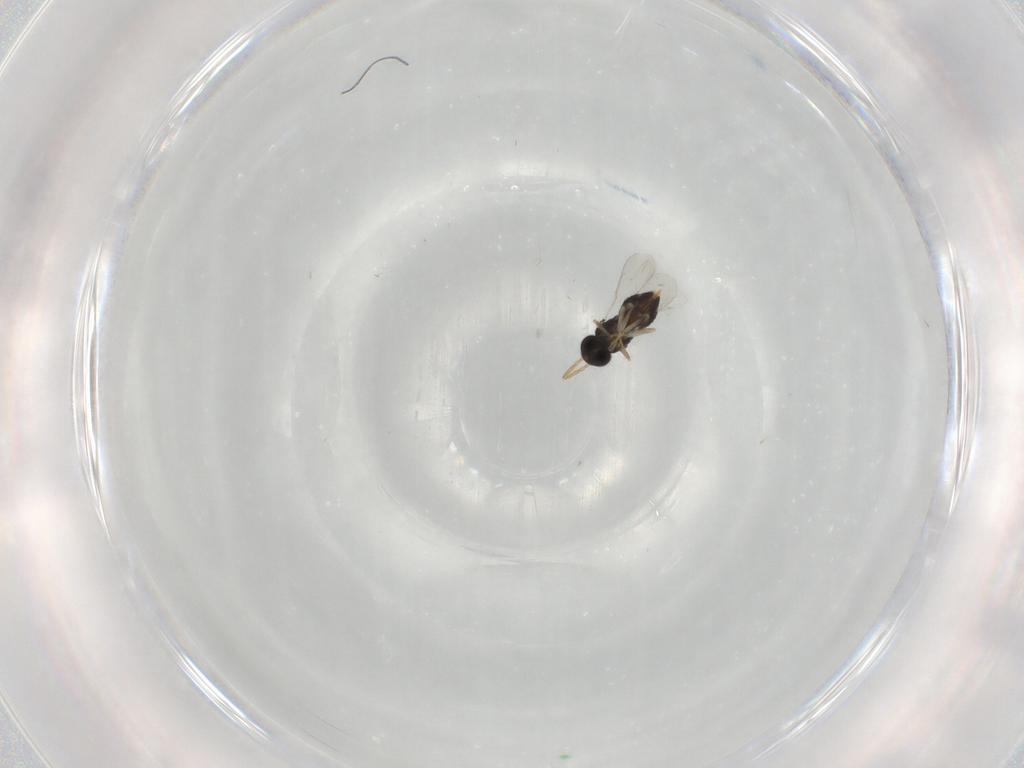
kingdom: Animalia
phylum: Arthropoda
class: Insecta
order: Hymenoptera
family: Aphelinidae
